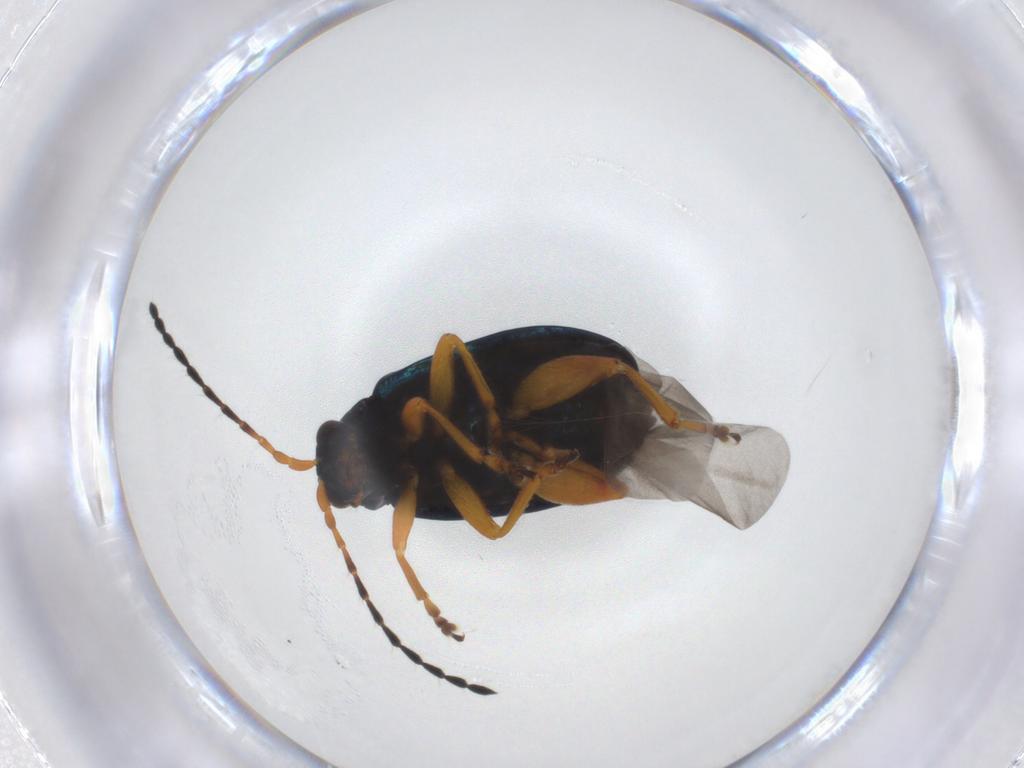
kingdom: Animalia
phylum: Arthropoda
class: Insecta
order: Coleoptera
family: Chrysomelidae
